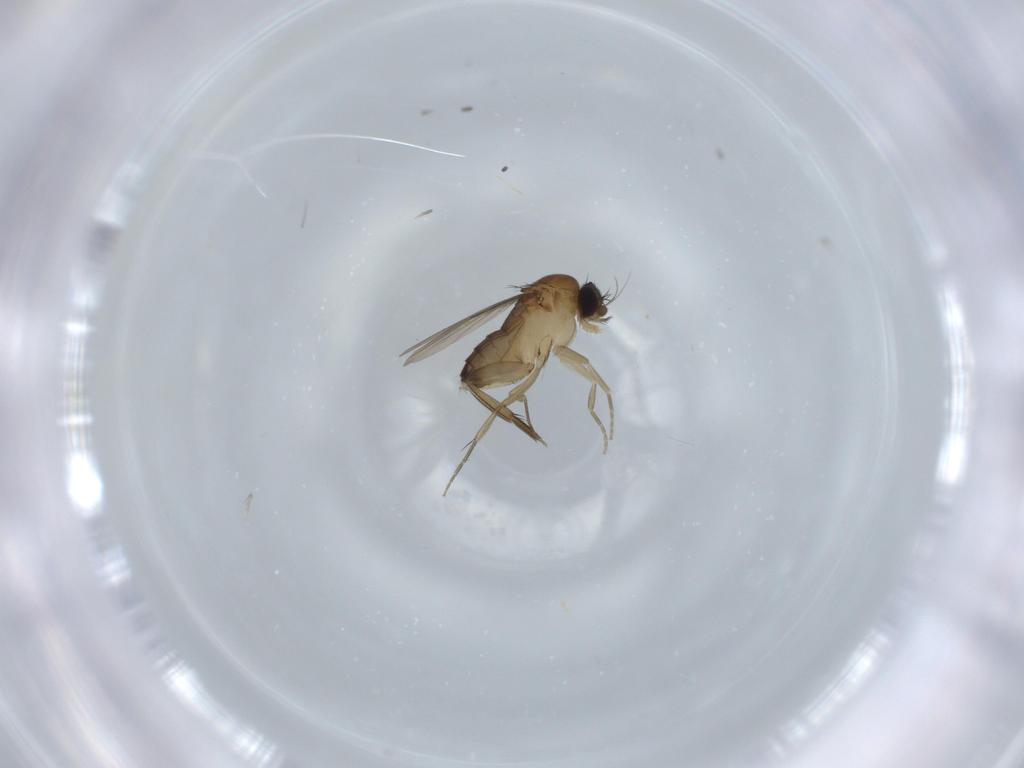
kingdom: Animalia
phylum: Arthropoda
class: Insecta
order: Diptera
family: Phoridae
